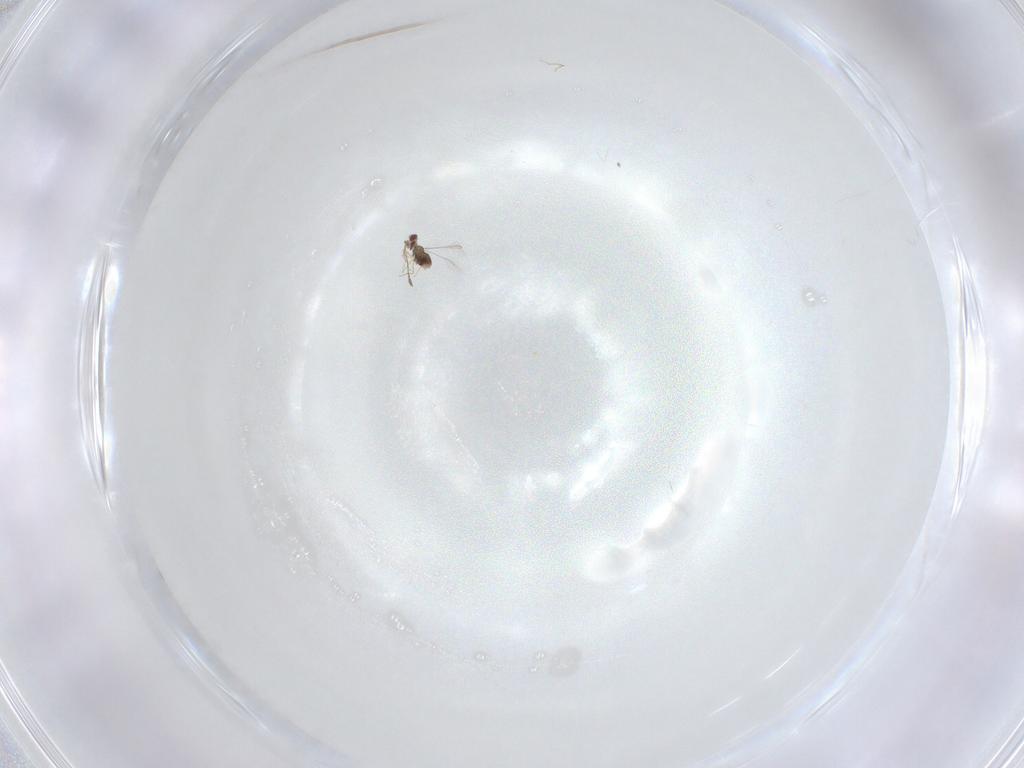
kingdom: Animalia
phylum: Arthropoda
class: Insecta
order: Hymenoptera
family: Mymaridae
